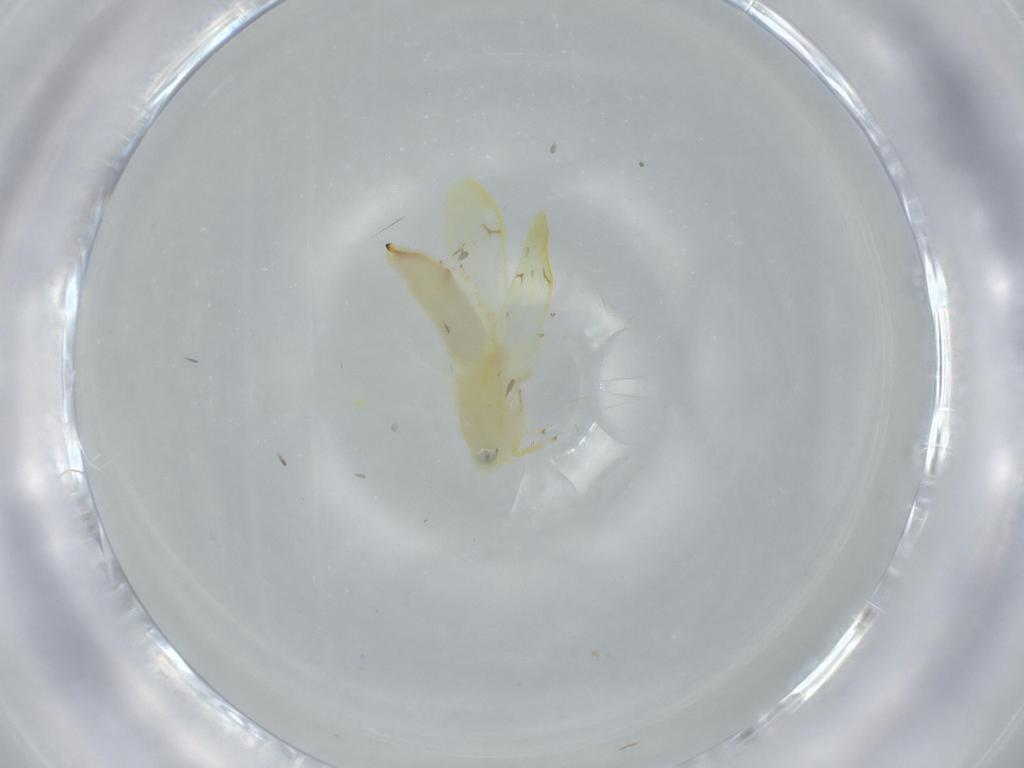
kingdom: Animalia
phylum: Arthropoda
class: Insecta
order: Hemiptera
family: Cicadellidae
